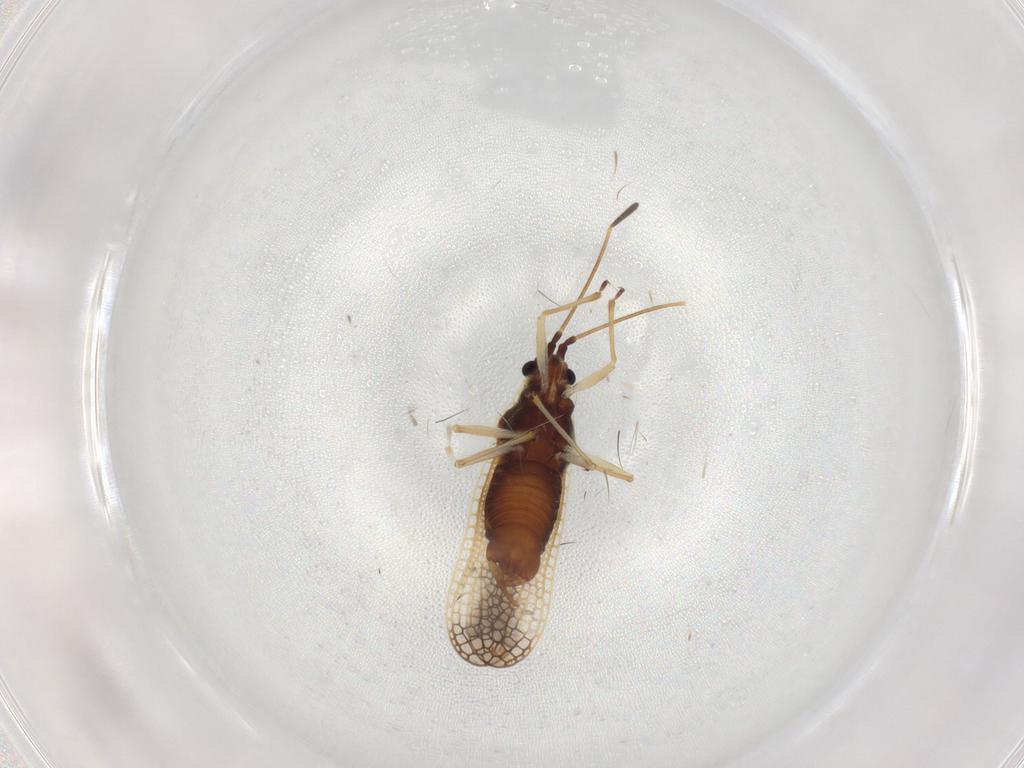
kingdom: Animalia
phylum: Arthropoda
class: Insecta
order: Hemiptera
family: Tingidae
